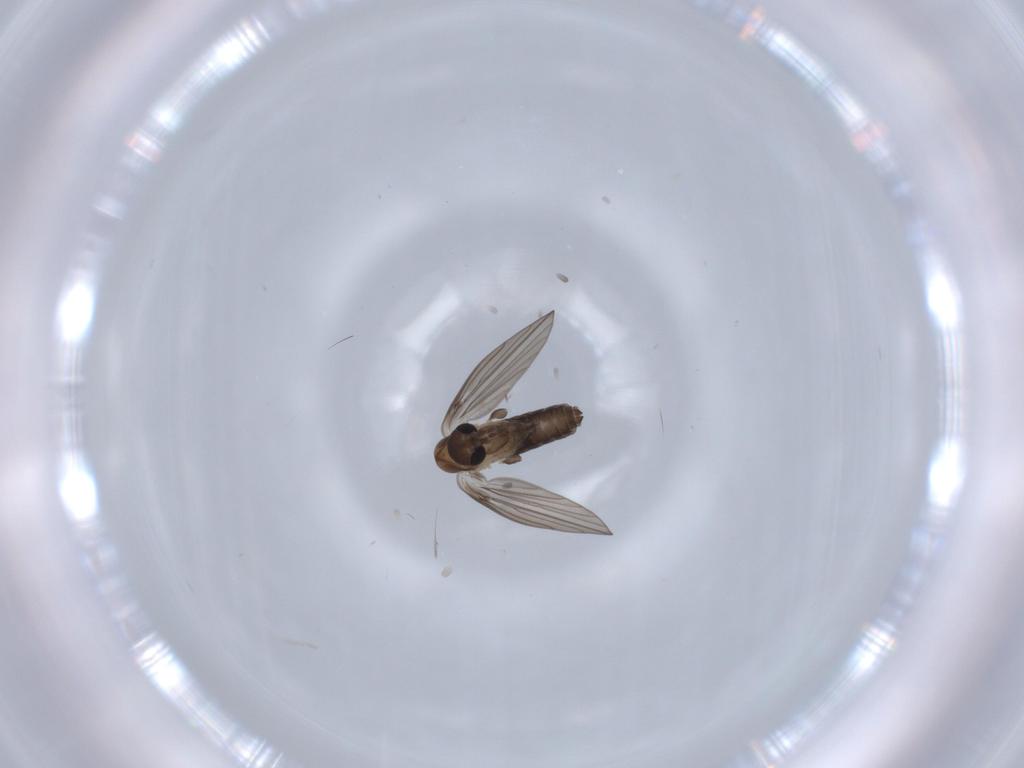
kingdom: Animalia
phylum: Arthropoda
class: Insecta
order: Diptera
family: Psychodidae
